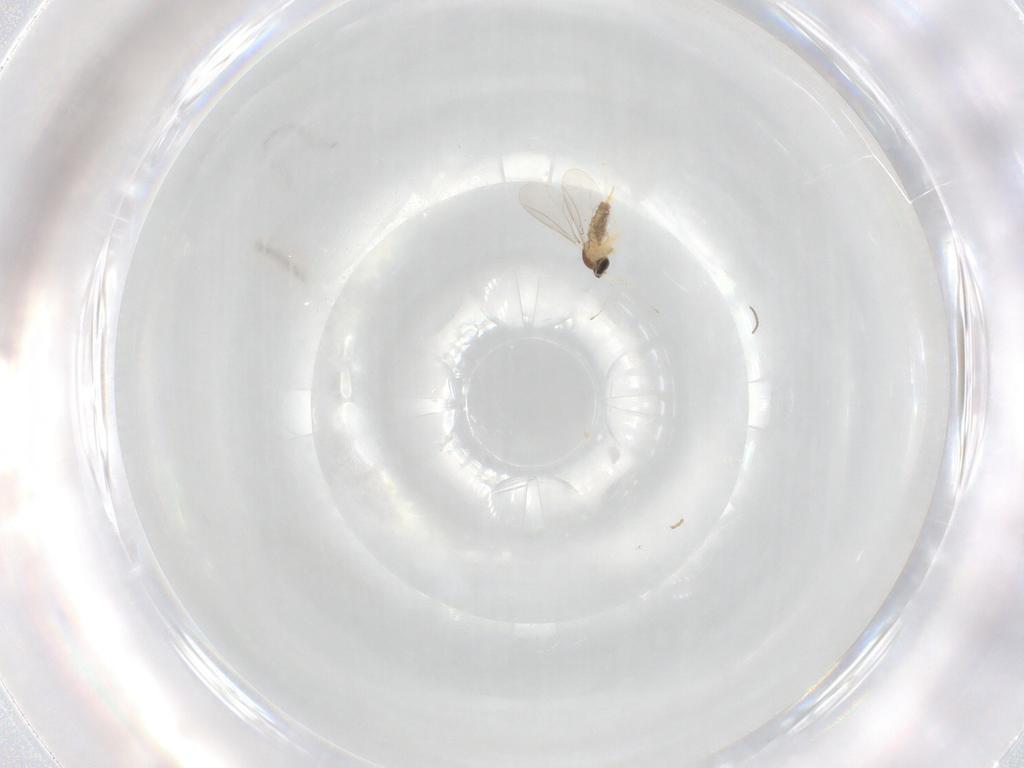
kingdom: Animalia
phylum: Arthropoda
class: Insecta
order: Diptera
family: Cecidomyiidae
